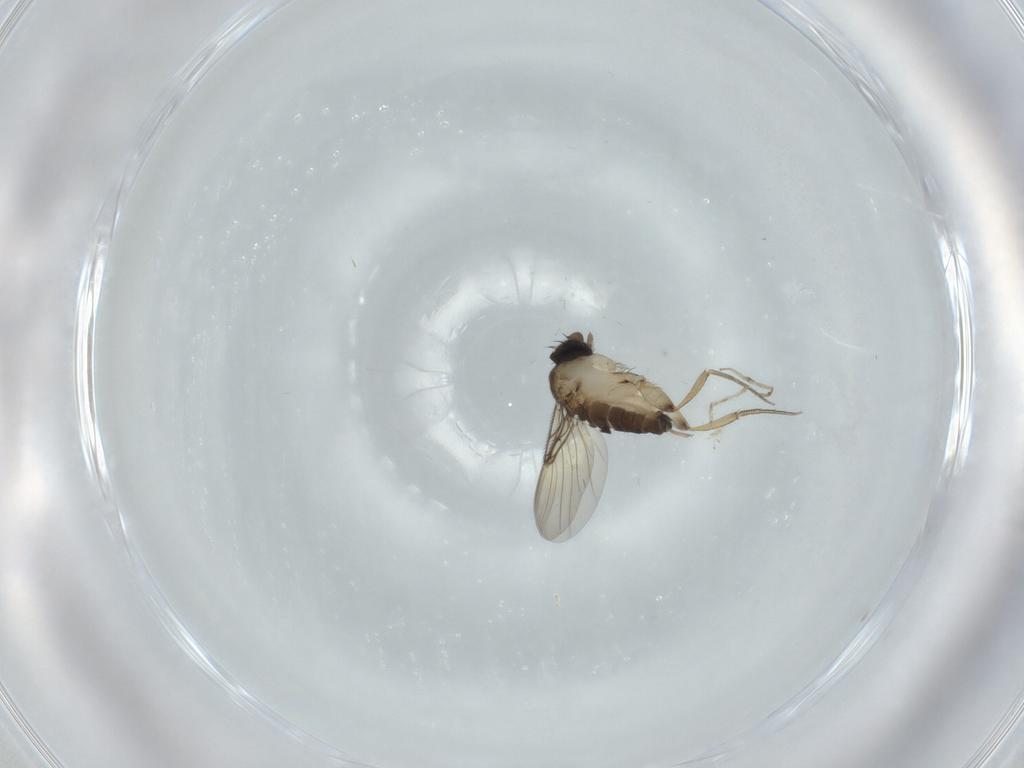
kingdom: Animalia
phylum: Arthropoda
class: Insecta
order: Diptera
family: Phoridae
